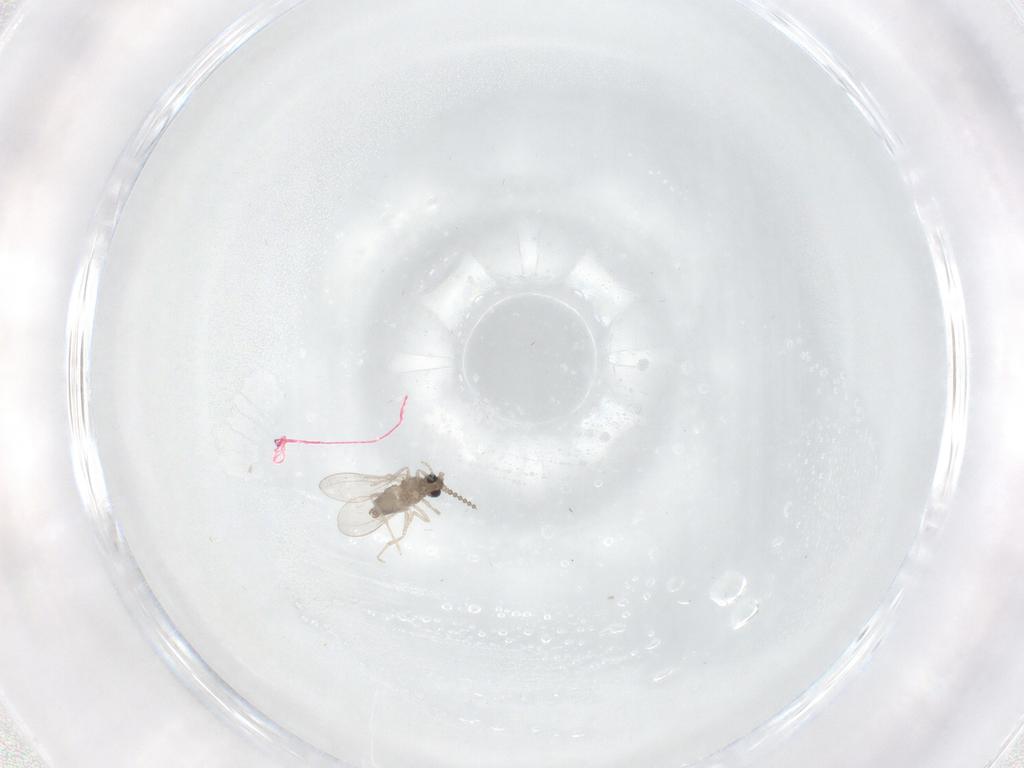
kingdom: Animalia
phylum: Arthropoda
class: Insecta
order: Diptera
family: Cecidomyiidae
